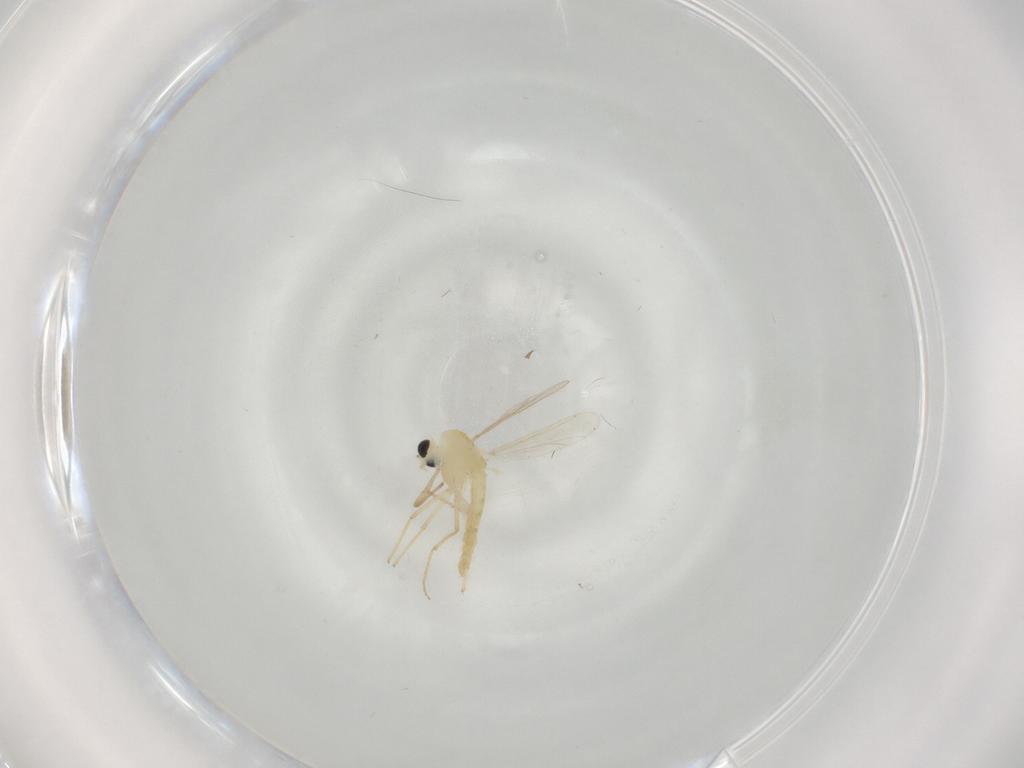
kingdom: Animalia
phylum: Arthropoda
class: Insecta
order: Diptera
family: Chironomidae
